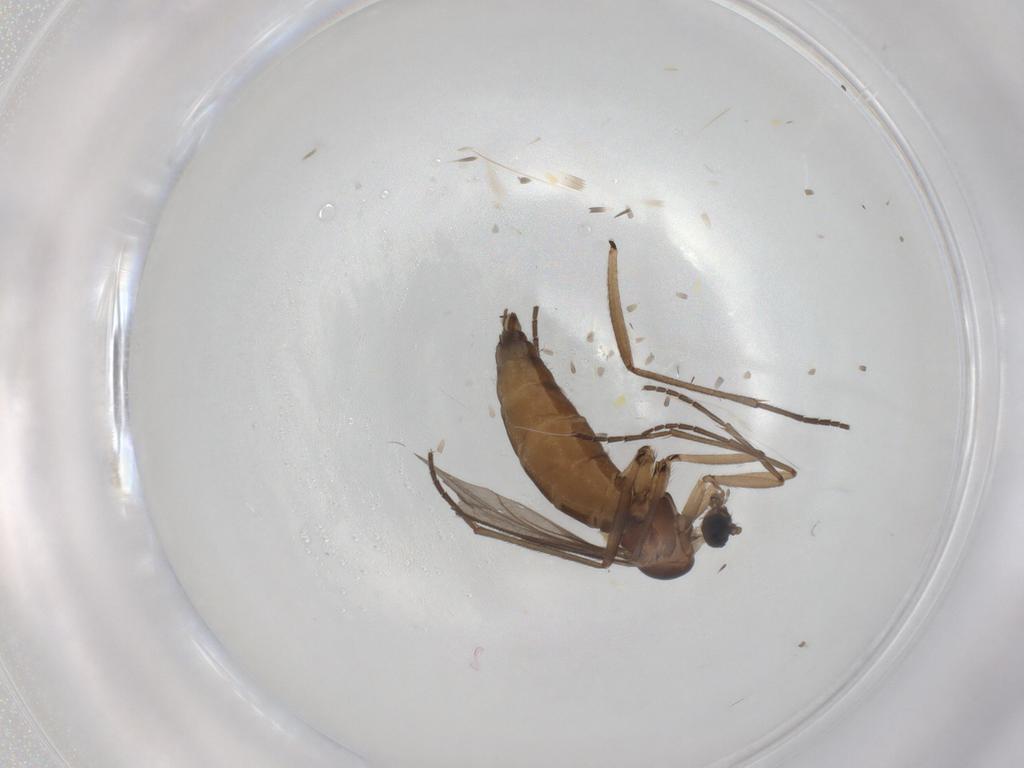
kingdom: Animalia
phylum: Arthropoda
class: Insecta
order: Diptera
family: Sciaridae
